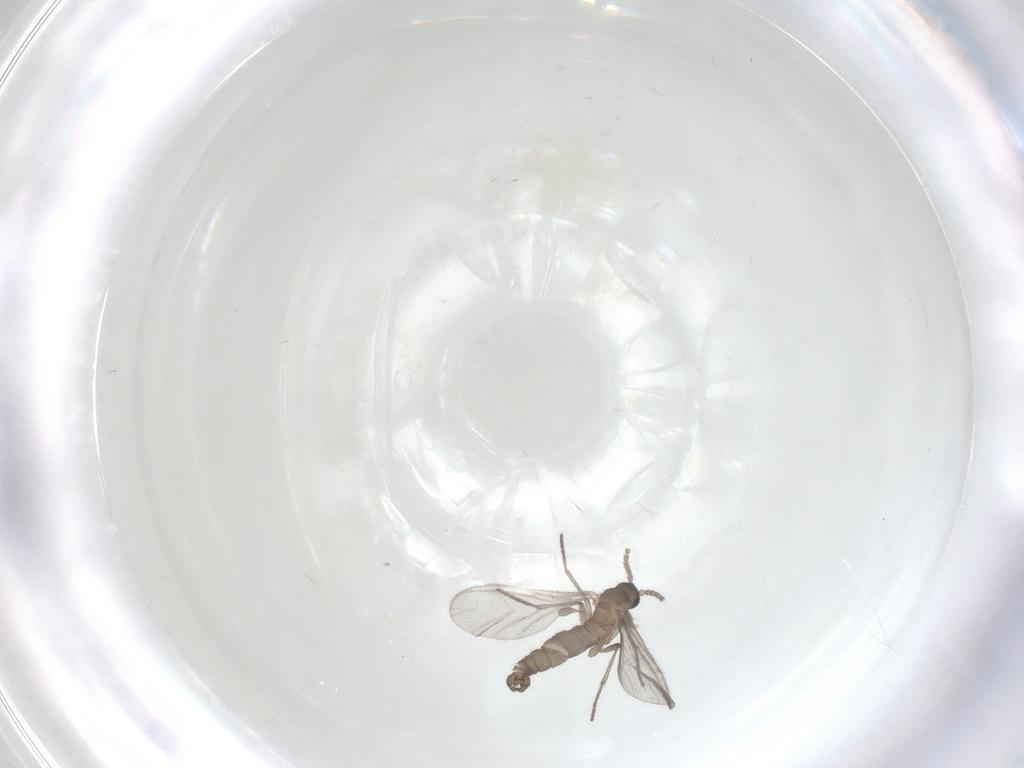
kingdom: Animalia
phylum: Arthropoda
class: Insecta
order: Diptera
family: Sciaridae
